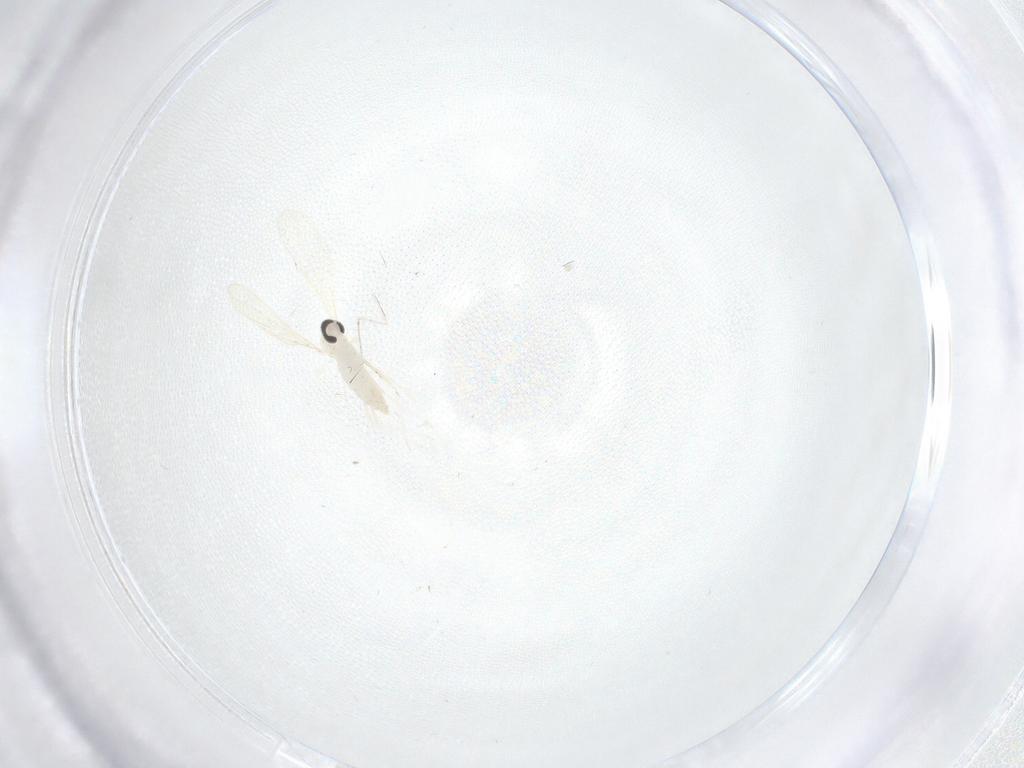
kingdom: Animalia
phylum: Arthropoda
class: Insecta
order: Diptera
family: Cecidomyiidae
